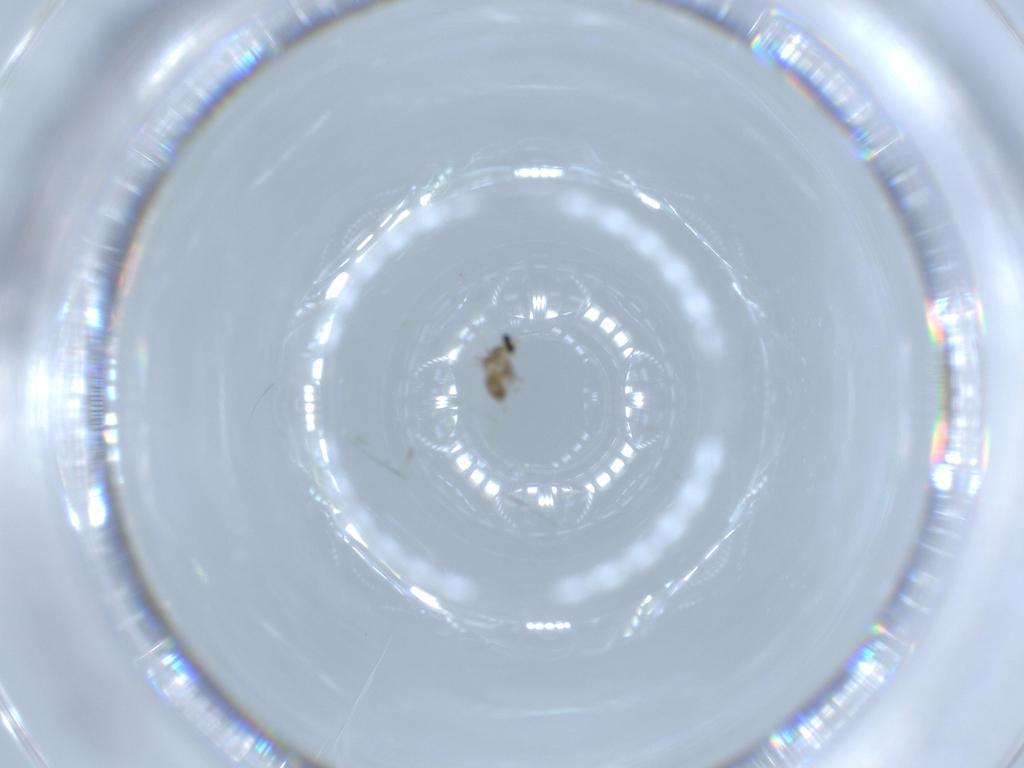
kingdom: Animalia
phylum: Arthropoda
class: Insecta
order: Diptera
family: Cecidomyiidae
